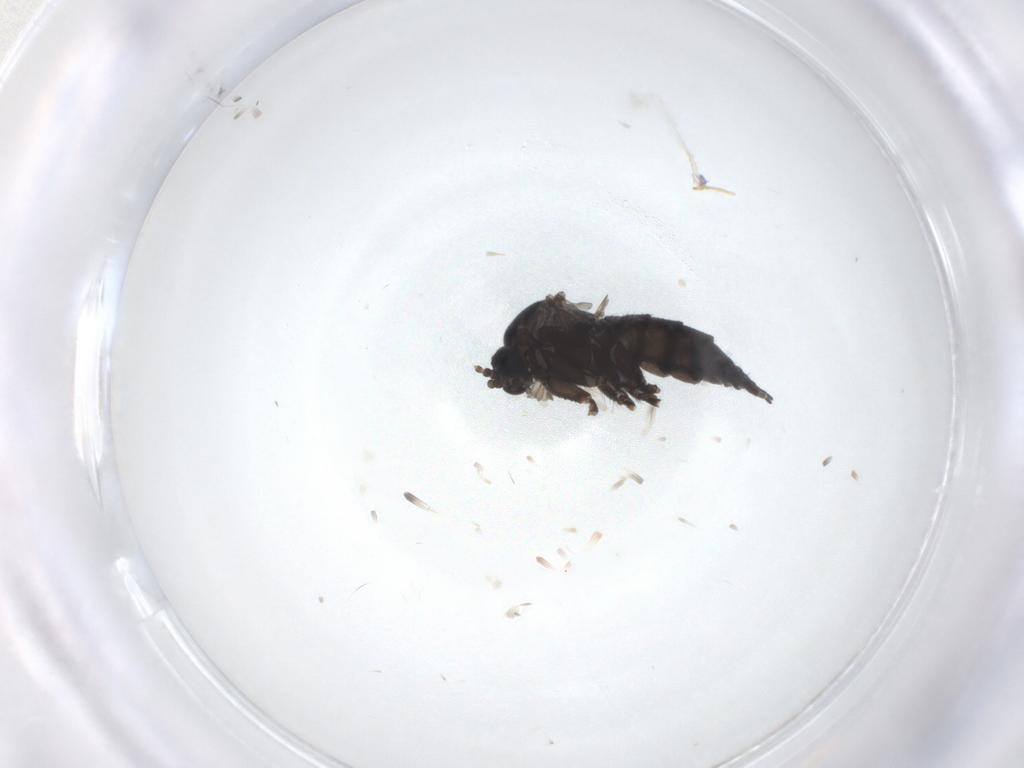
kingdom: Animalia
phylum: Arthropoda
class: Insecta
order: Diptera
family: Sciaridae
